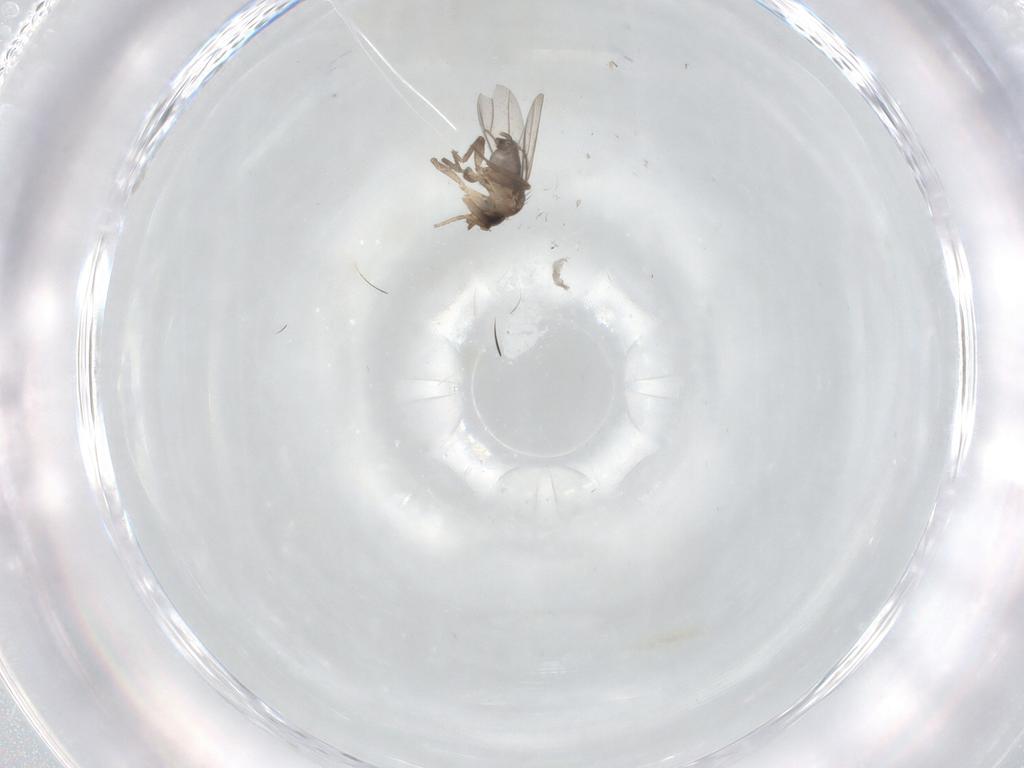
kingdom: Animalia
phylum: Arthropoda
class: Insecta
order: Diptera
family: Phoridae
